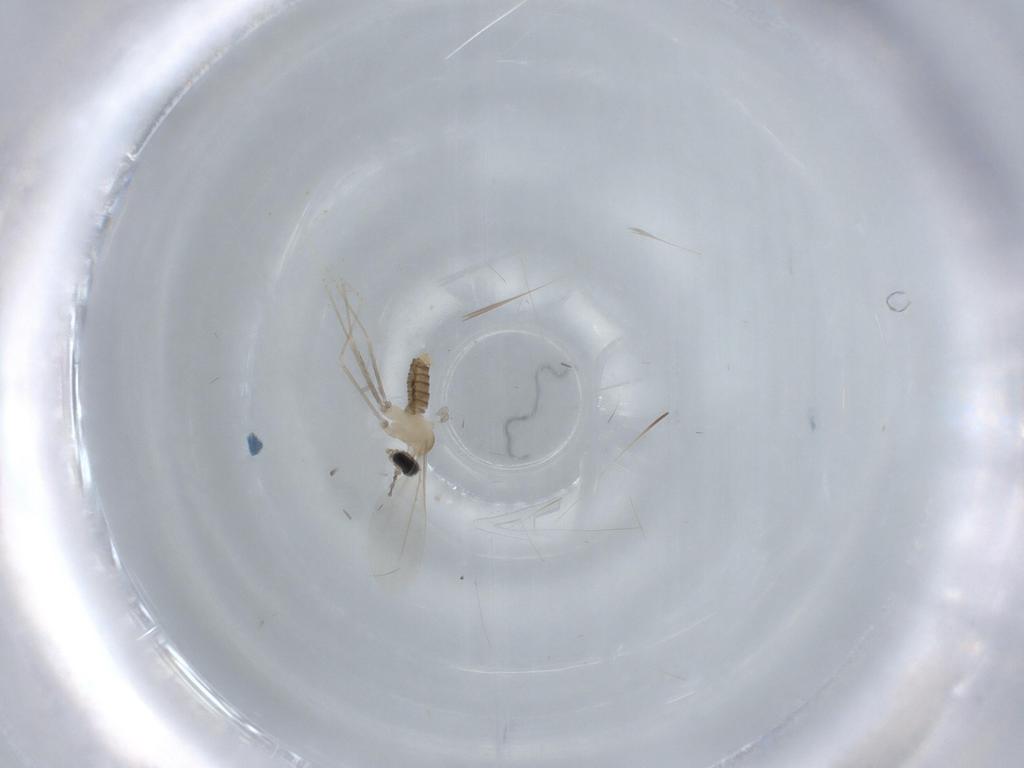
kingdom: Animalia
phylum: Arthropoda
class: Insecta
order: Diptera
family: Cecidomyiidae
